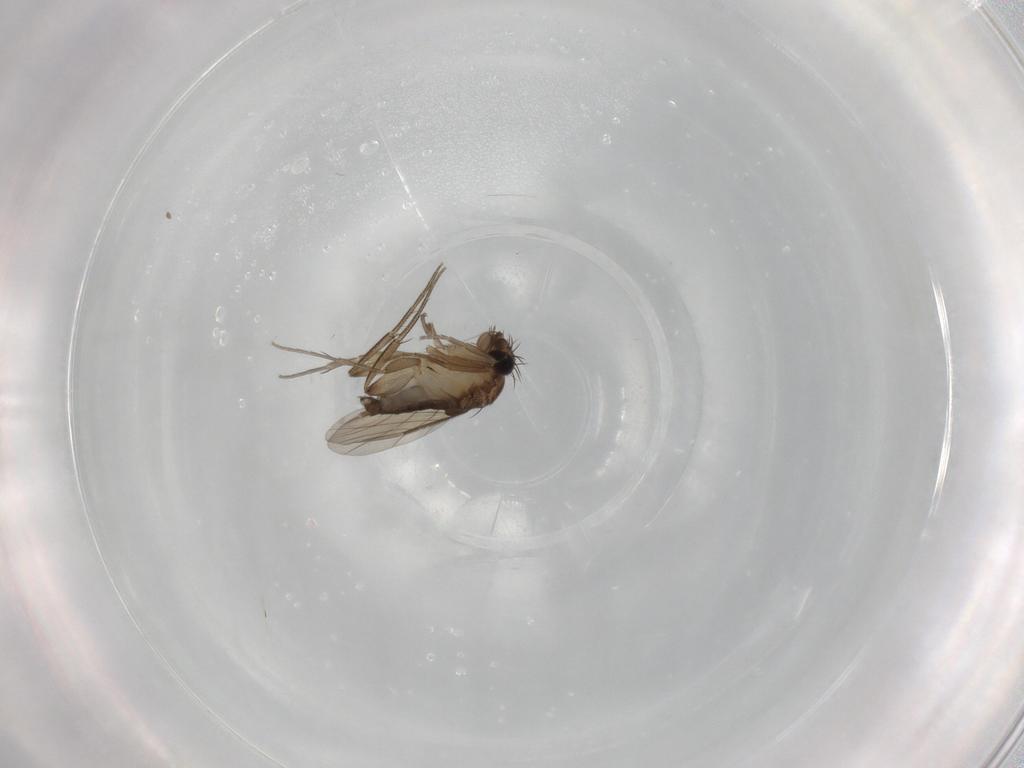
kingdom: Animalia
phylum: Arthropoda
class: Insecta
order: Diptera
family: Phoridae
